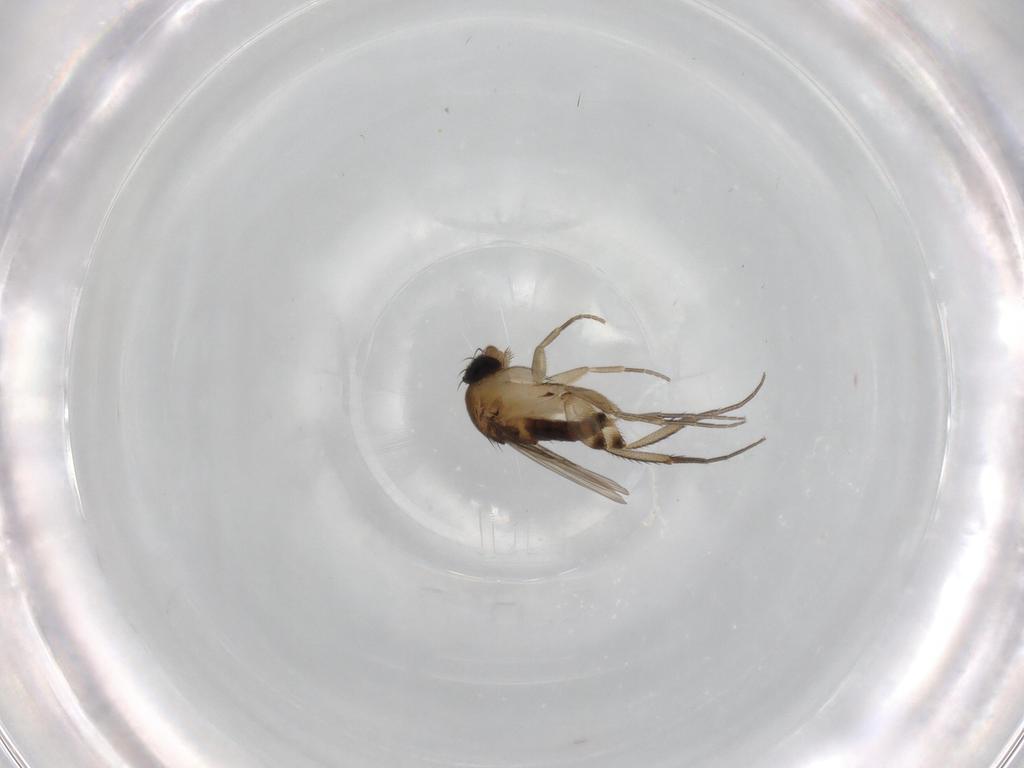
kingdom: Animalia
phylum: Arthropoda
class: Insecta
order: Diptera
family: Phoridae
